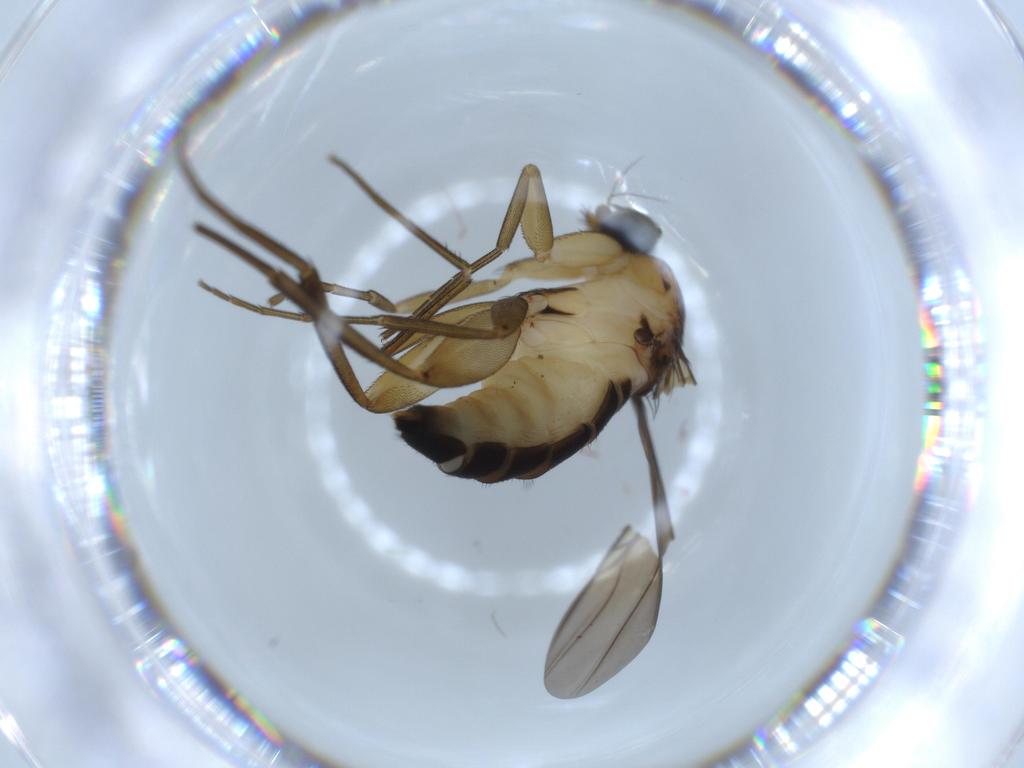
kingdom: Animalia
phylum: Arthropoda
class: Insecta
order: Diptera
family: Phoridae
